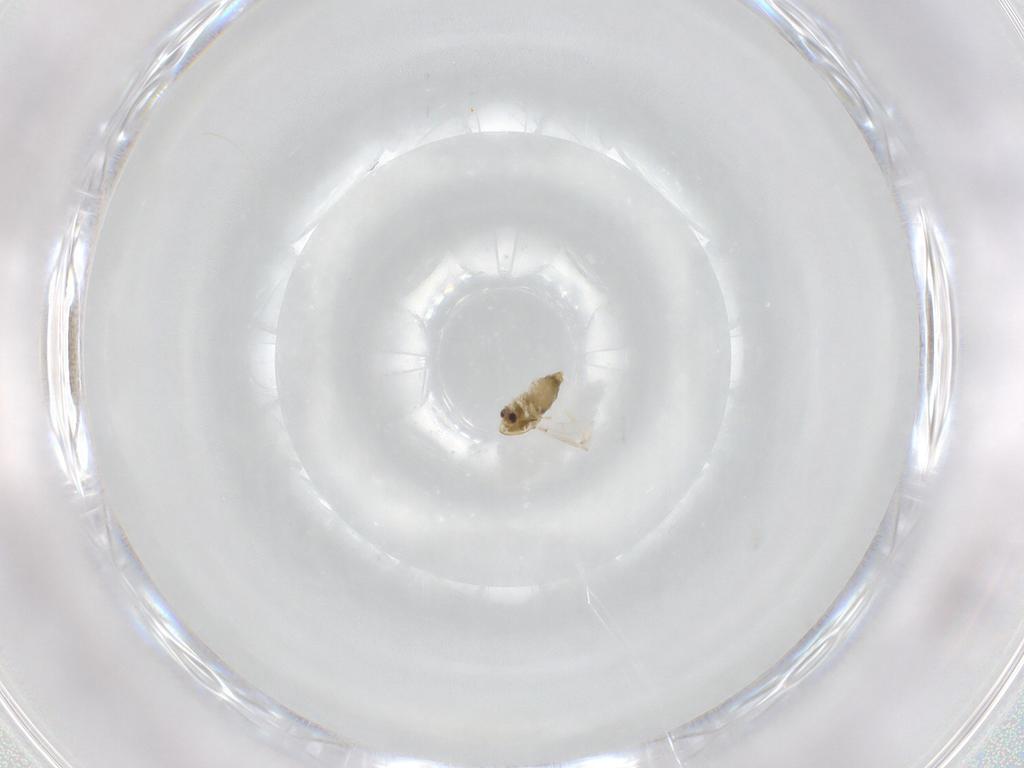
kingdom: Animalia
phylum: Arthropoda
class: Insecta
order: Diptera
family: Chironomidae
